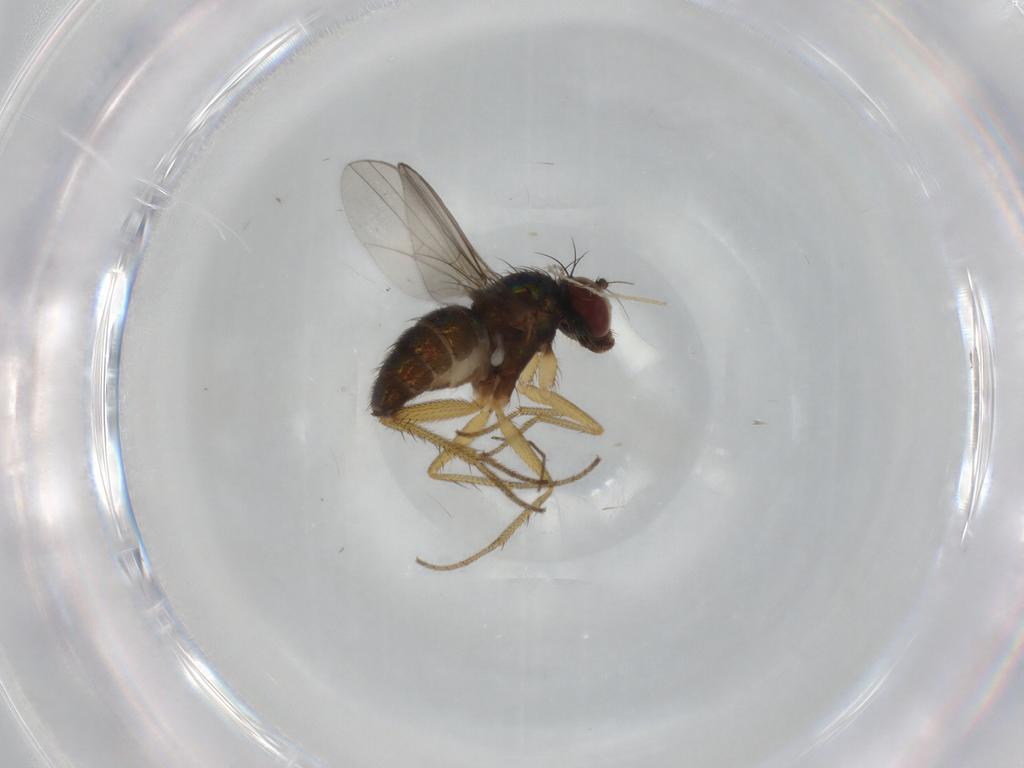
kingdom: Animalia
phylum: Arthropoda
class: Insecta
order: Diptera
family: Dolichopodidae
